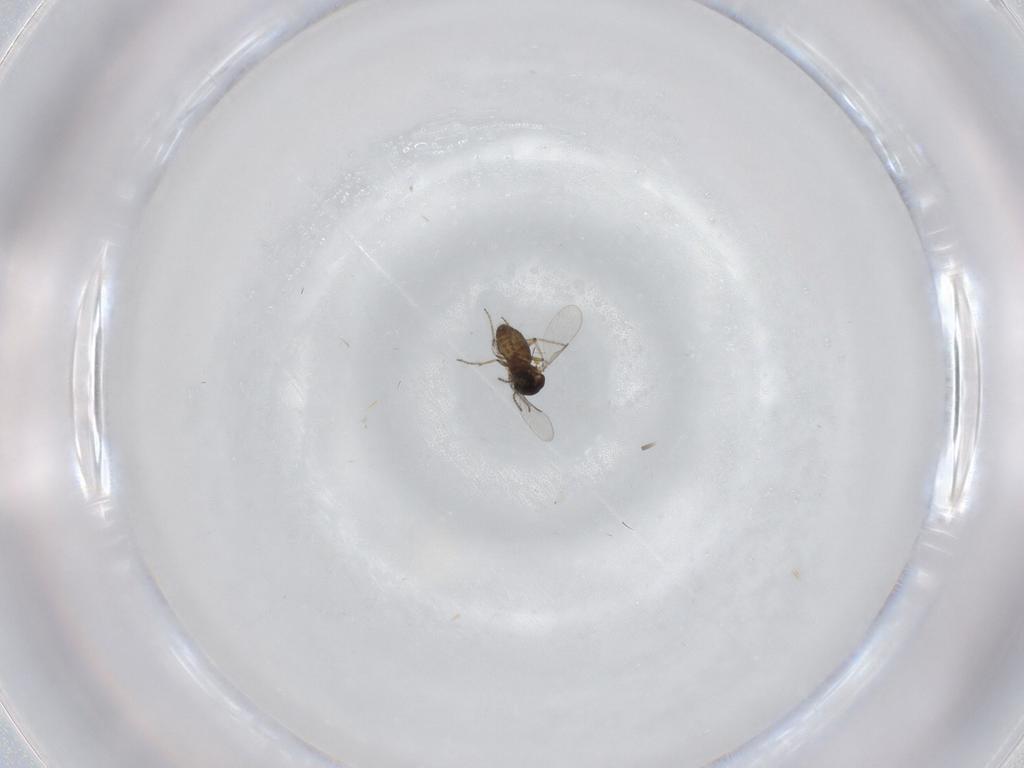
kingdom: Animalia
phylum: Arthropoda
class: Insecta
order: Diptera
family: Ceratopogonidae
